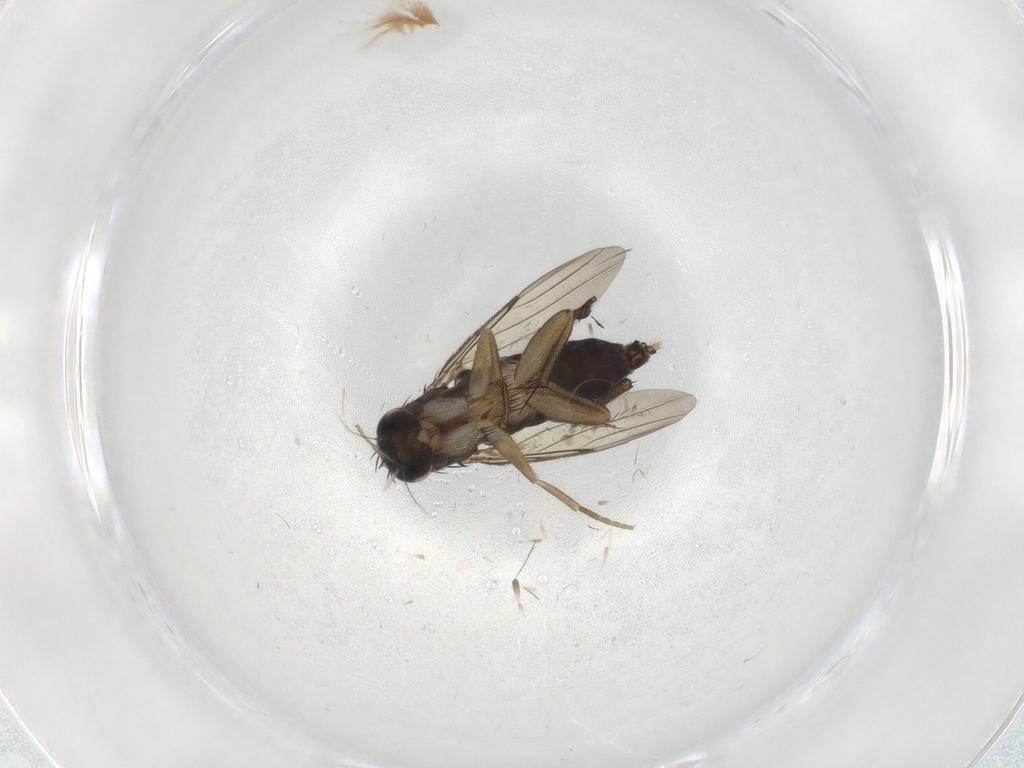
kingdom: Animalia
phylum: Arthropoda
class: Insecta
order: Diptera
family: Phoridae
